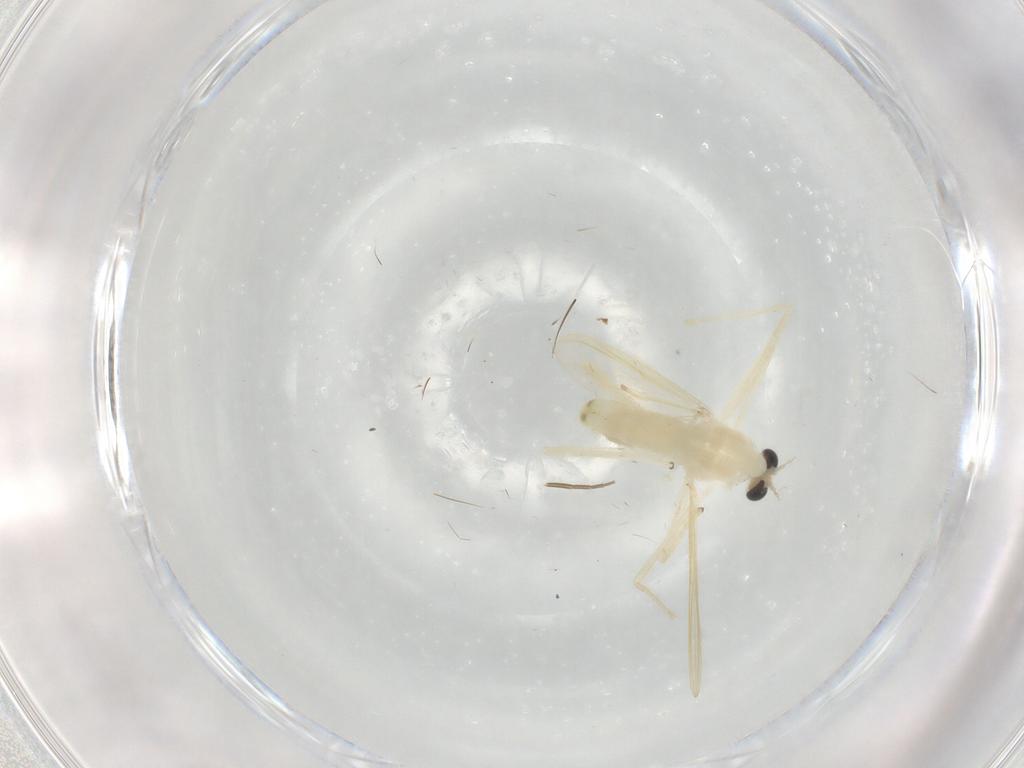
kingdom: Animalia
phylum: Arthropoda
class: Insecta
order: Diptera
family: Chironomidae
